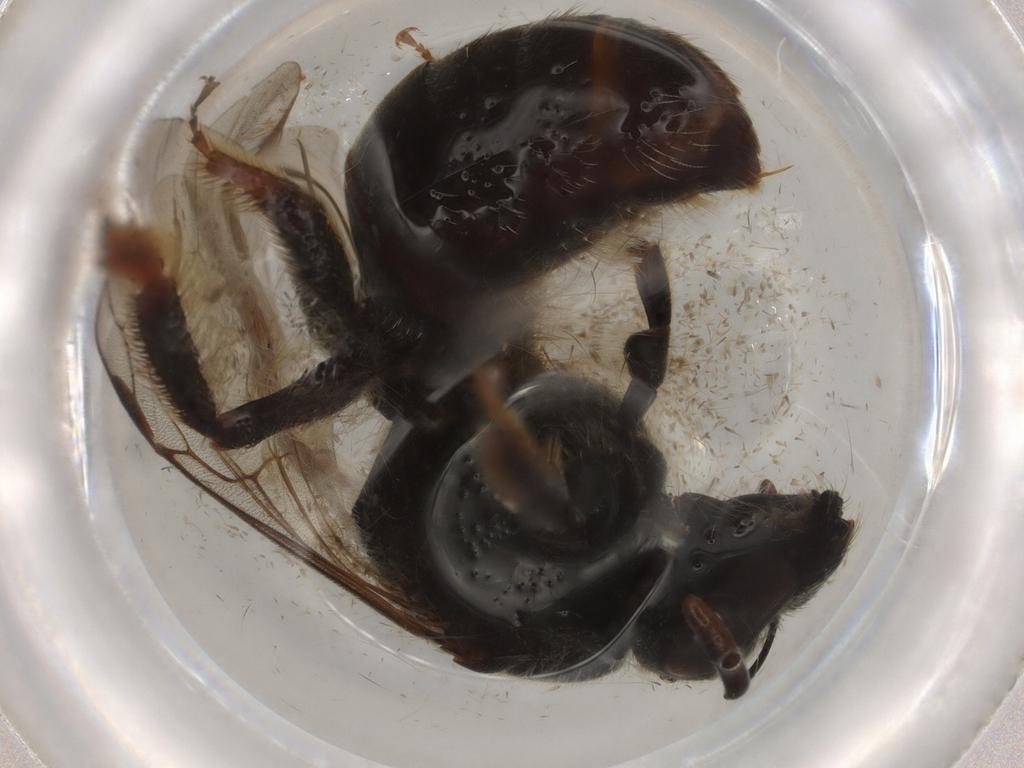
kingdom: Animalia
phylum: Arthropoda
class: Insecta
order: Hymenoptera
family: Halictidae
